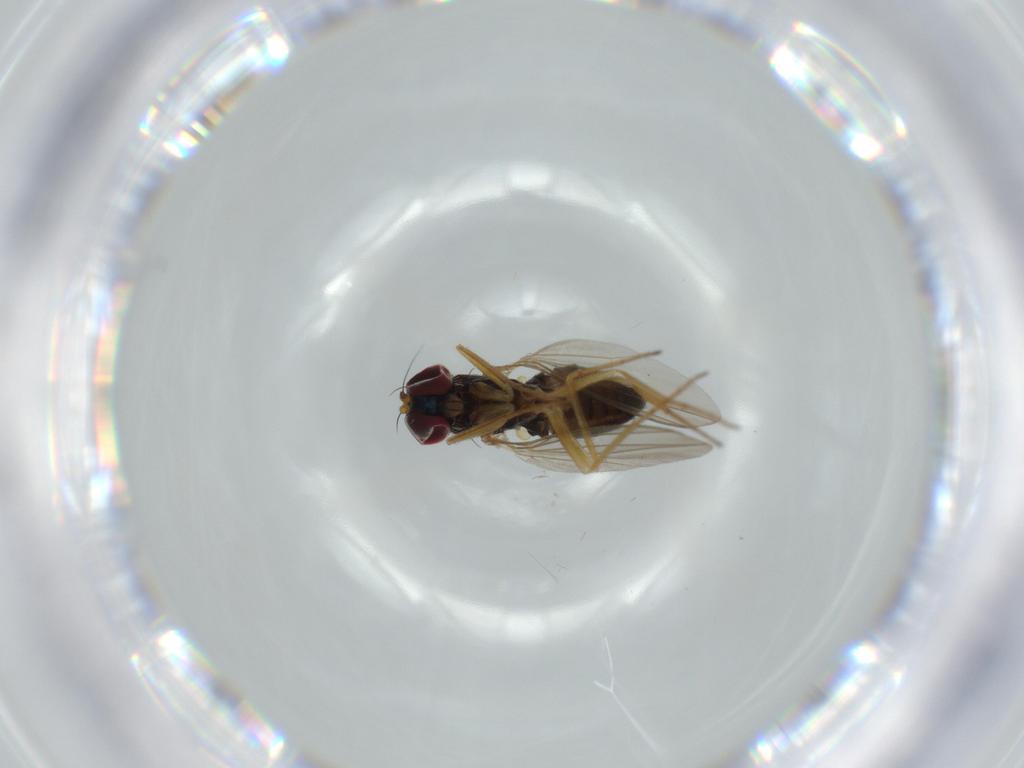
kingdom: Animalia
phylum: Arthropoda
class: Insecta
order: Diptera
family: Dolichopodidae
